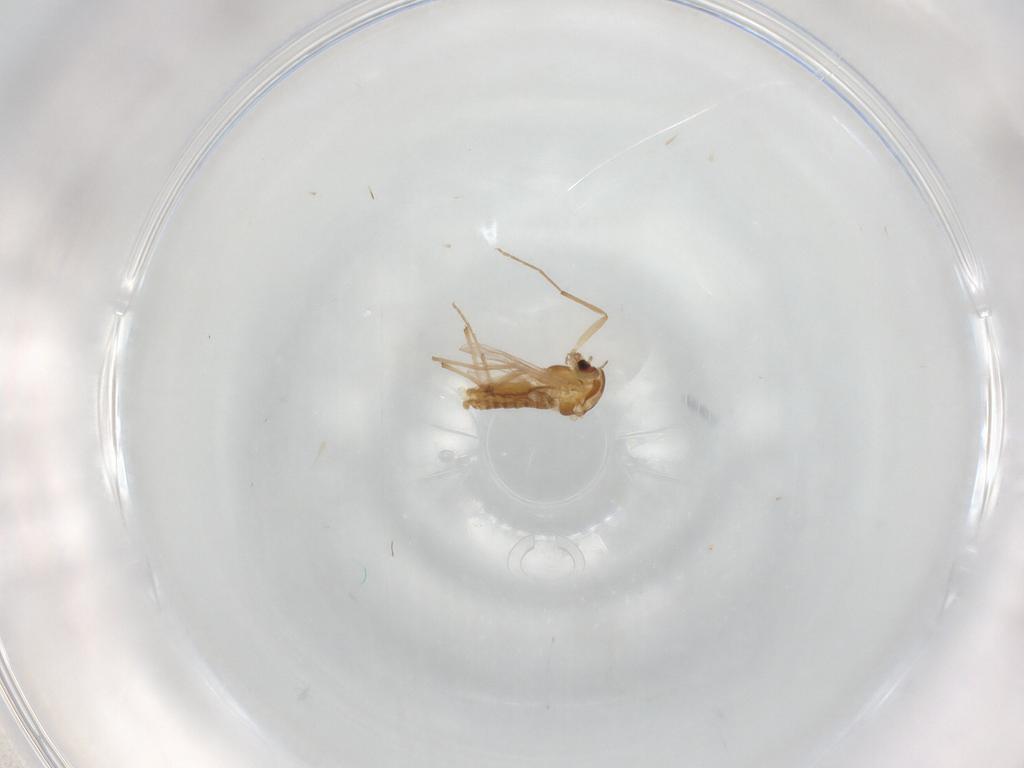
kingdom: Animalia
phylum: Arthropoda
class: Insecta
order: Diptera
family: Chironomidae
